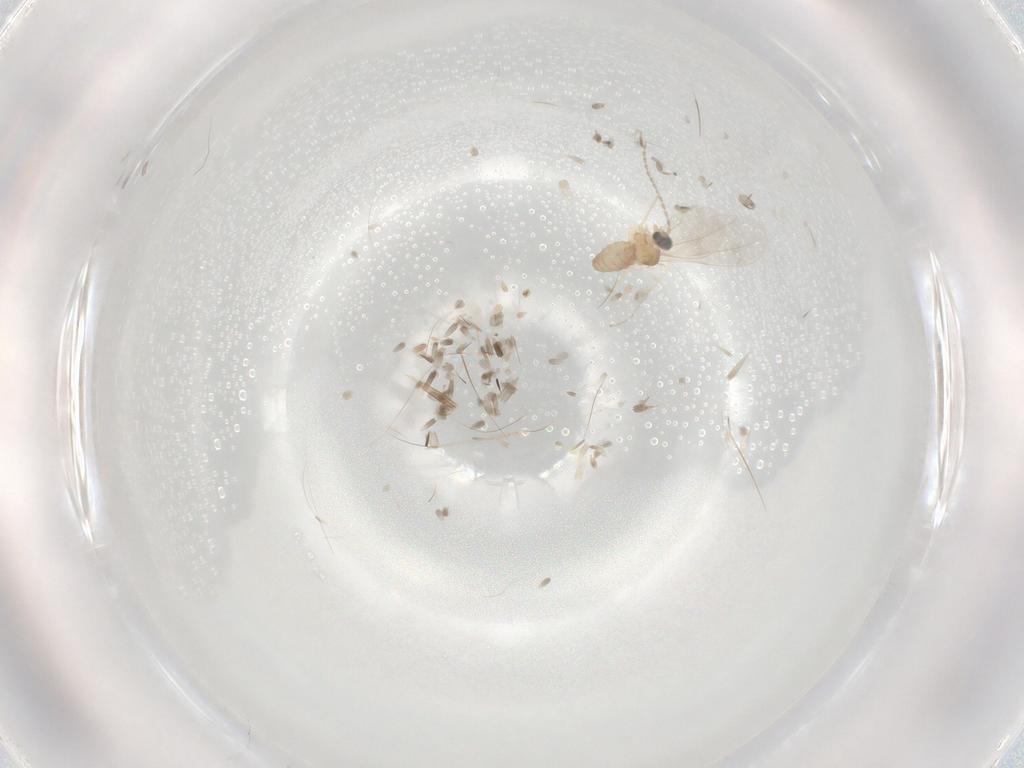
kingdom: Animalia
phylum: Arthropoda
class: Insecta
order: Diptera
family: Cecidomyiidae
